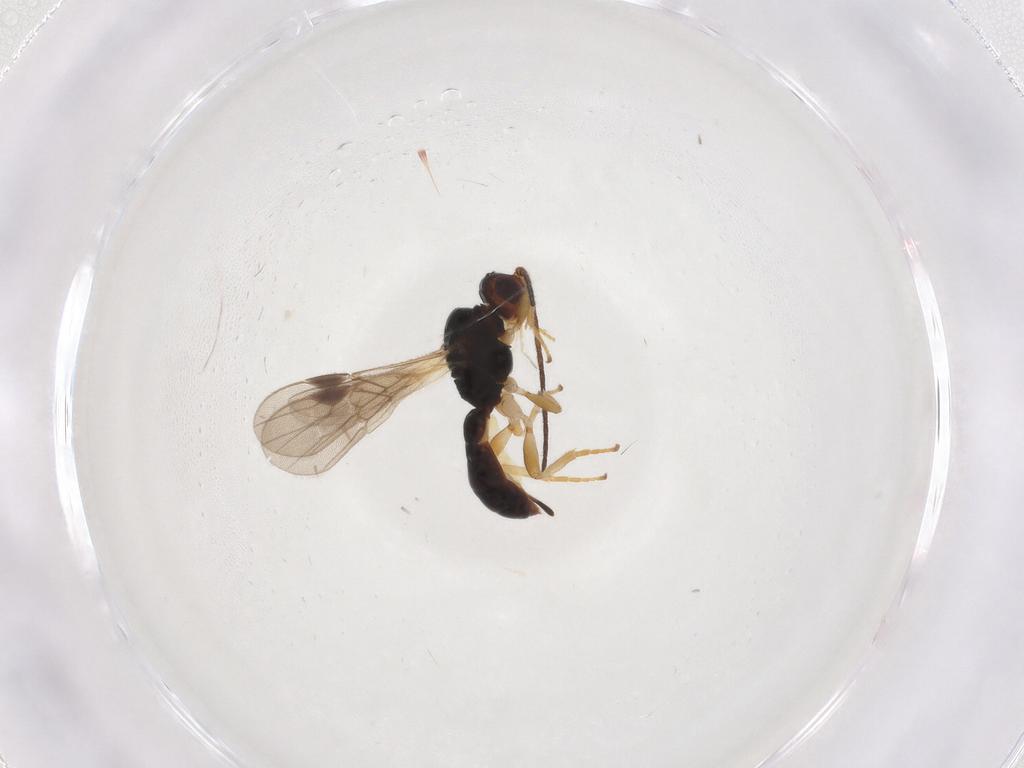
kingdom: Animalia
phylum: Arthropoda
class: Insecta
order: Hymenoptera
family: Braconidae
